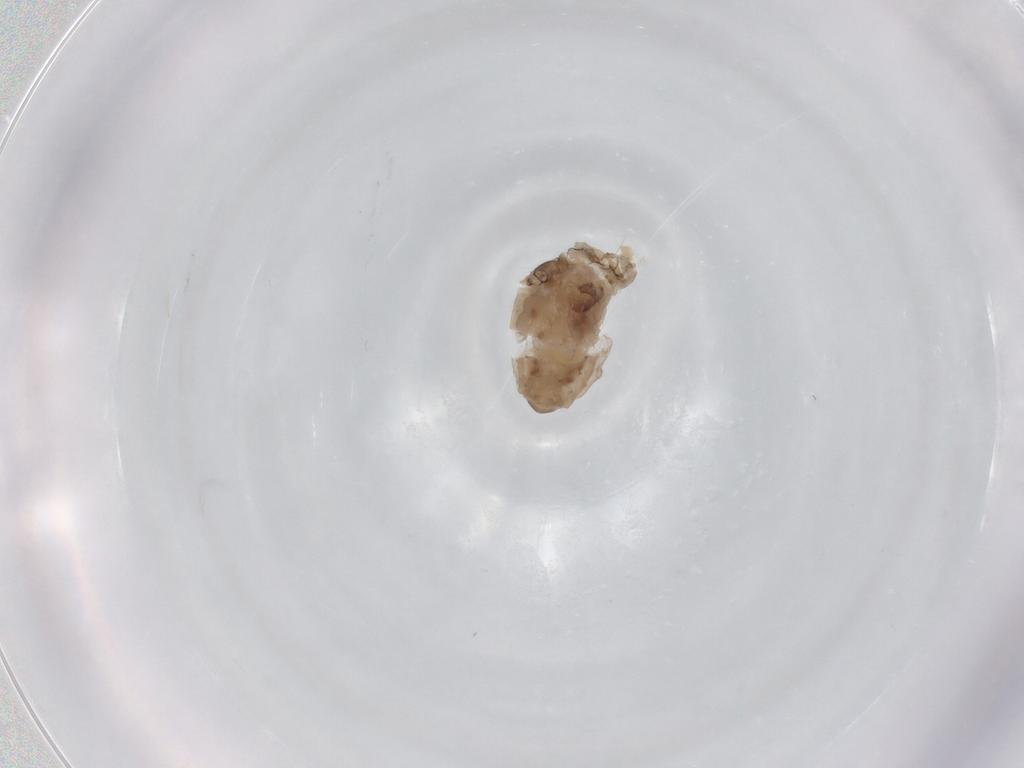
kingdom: Animalia
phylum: Arthropoda
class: Insecta
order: Hemiptera
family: Aphididae
